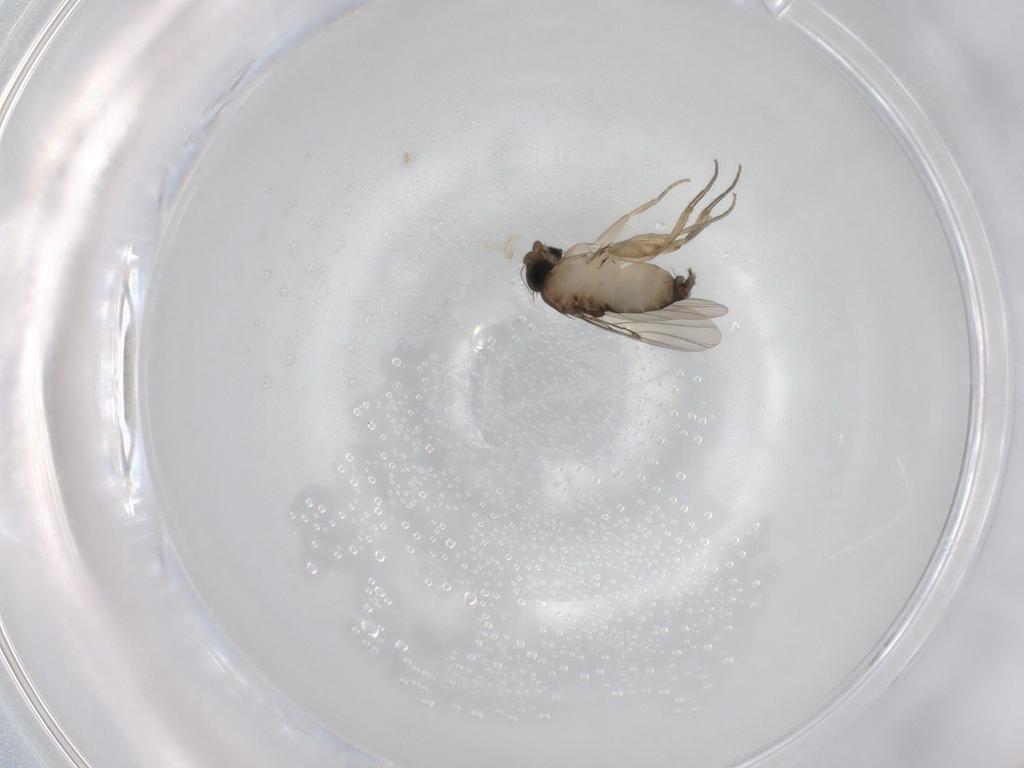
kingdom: Animalia
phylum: Arthropoda
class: Insecta
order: Diptera
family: Phoridae
